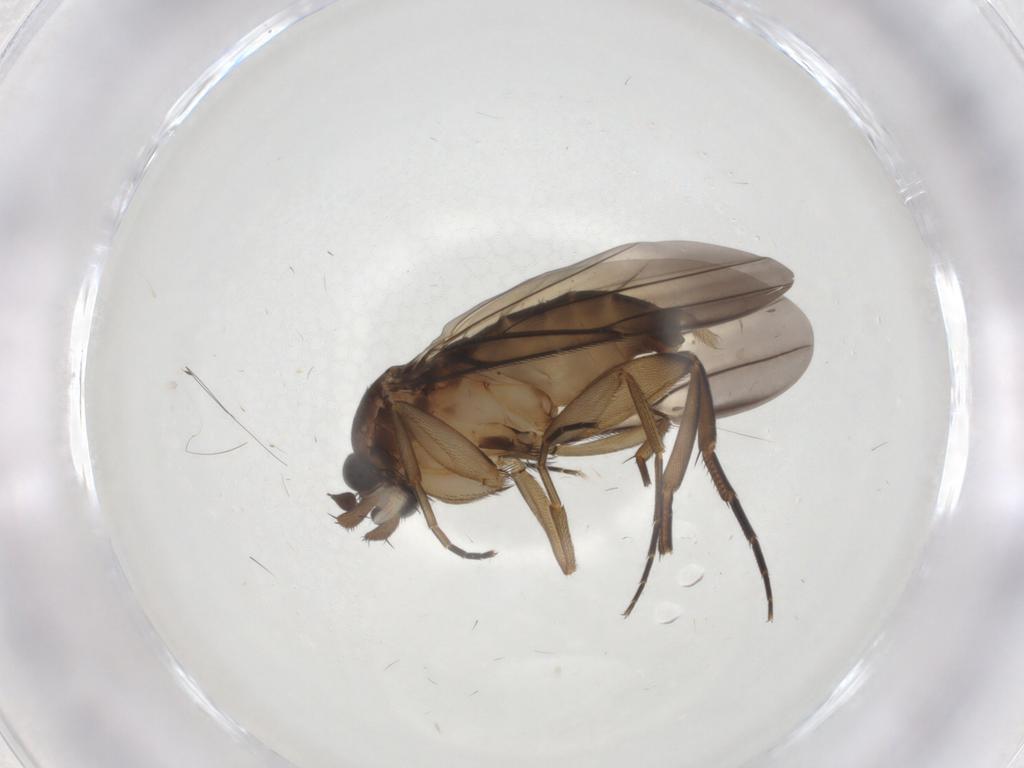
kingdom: Animalia
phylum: Arthropoda
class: Insecta
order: Diptera
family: Phoridae
